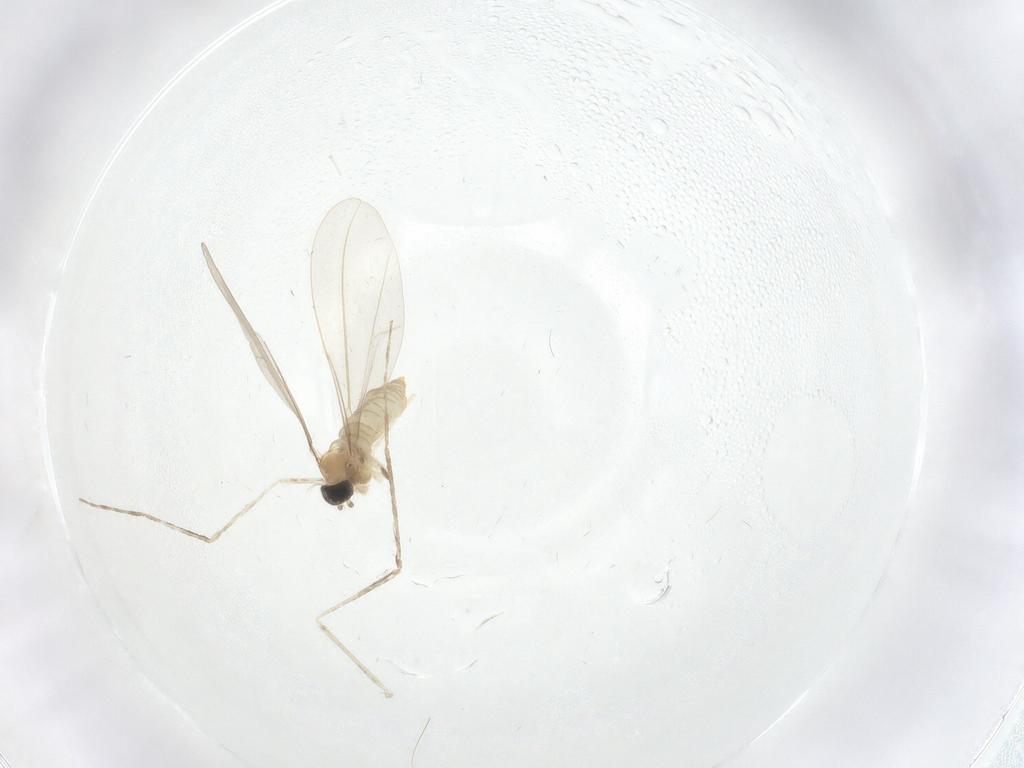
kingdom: Animalia
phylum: Arthropoda
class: Insecta
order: Diptera
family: Cecidomyiidae
